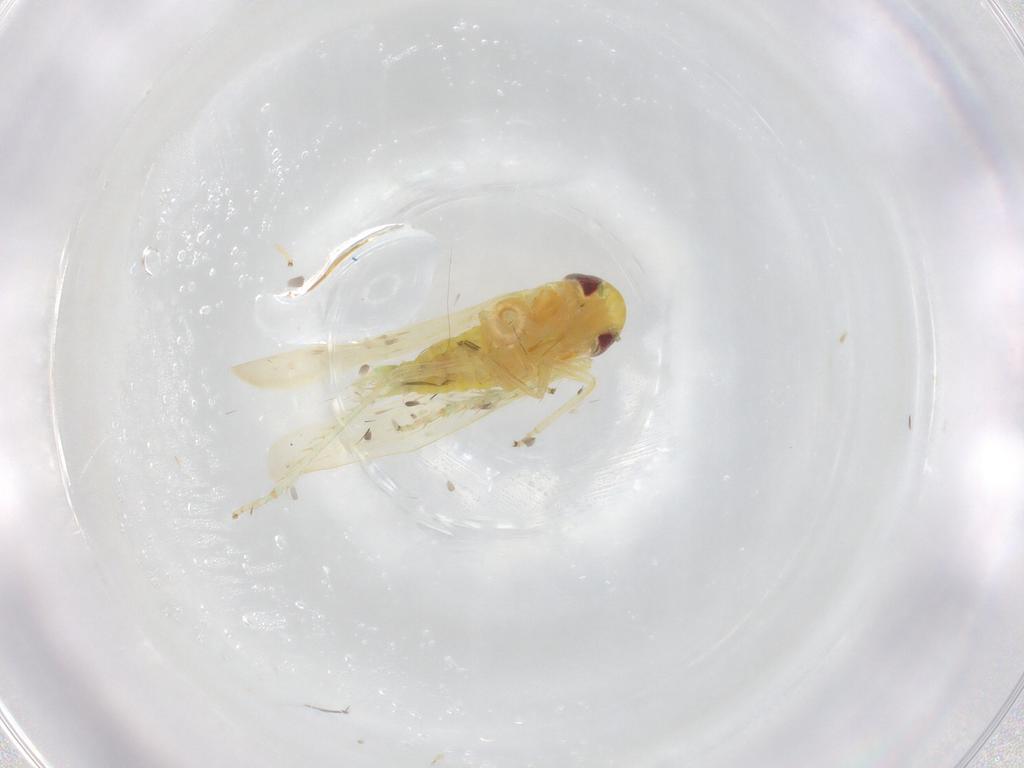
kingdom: Animalia
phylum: Arthropoda
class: Insecta
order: Hemiptera
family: Cicadellidae
